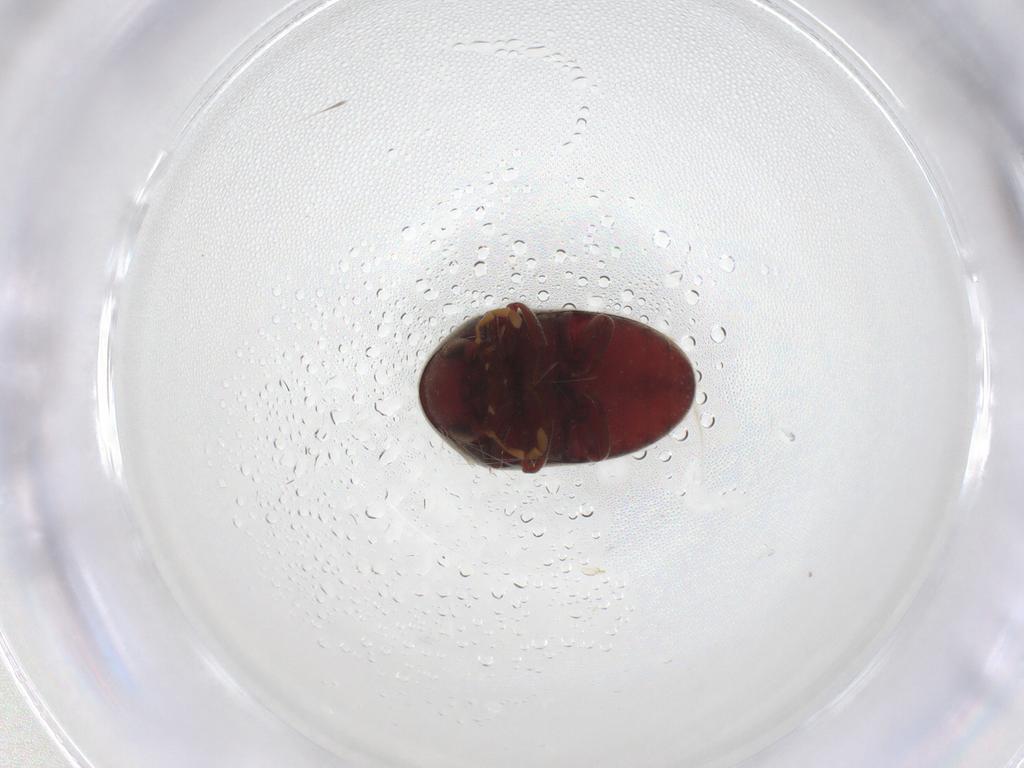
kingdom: Animalia
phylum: Arthropoda
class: Insecta
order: Coleoptera
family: Anobiidae
